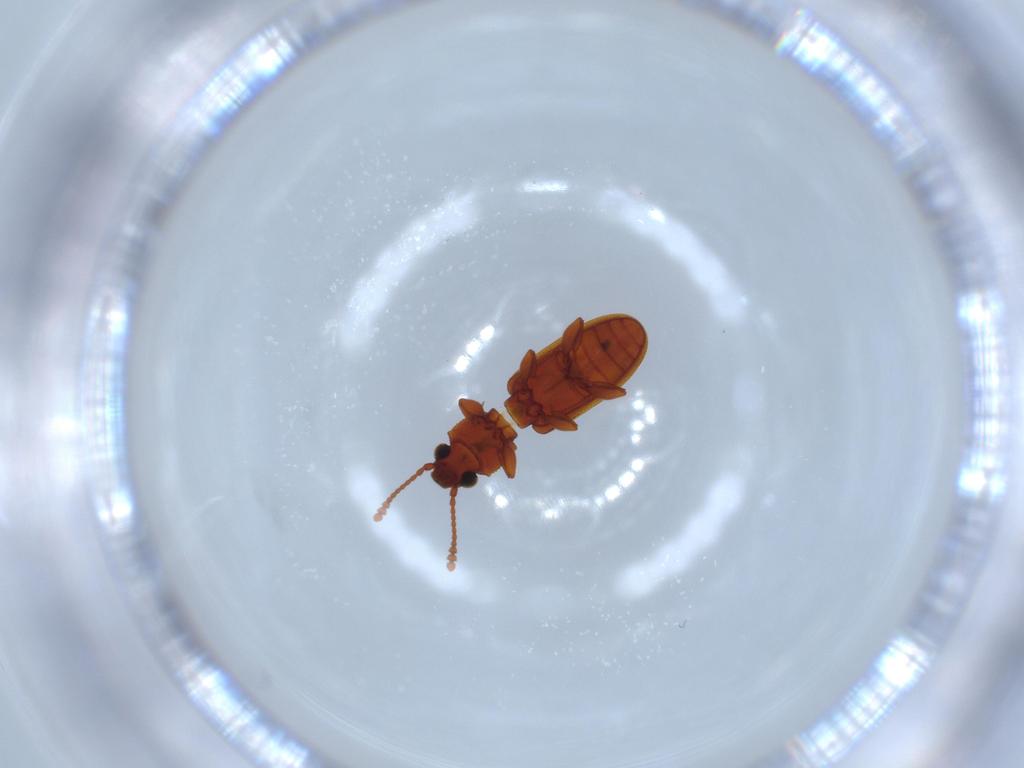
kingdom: Animalia
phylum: Arthropoda
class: Insecta
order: Coleoptera
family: Silvanidae
